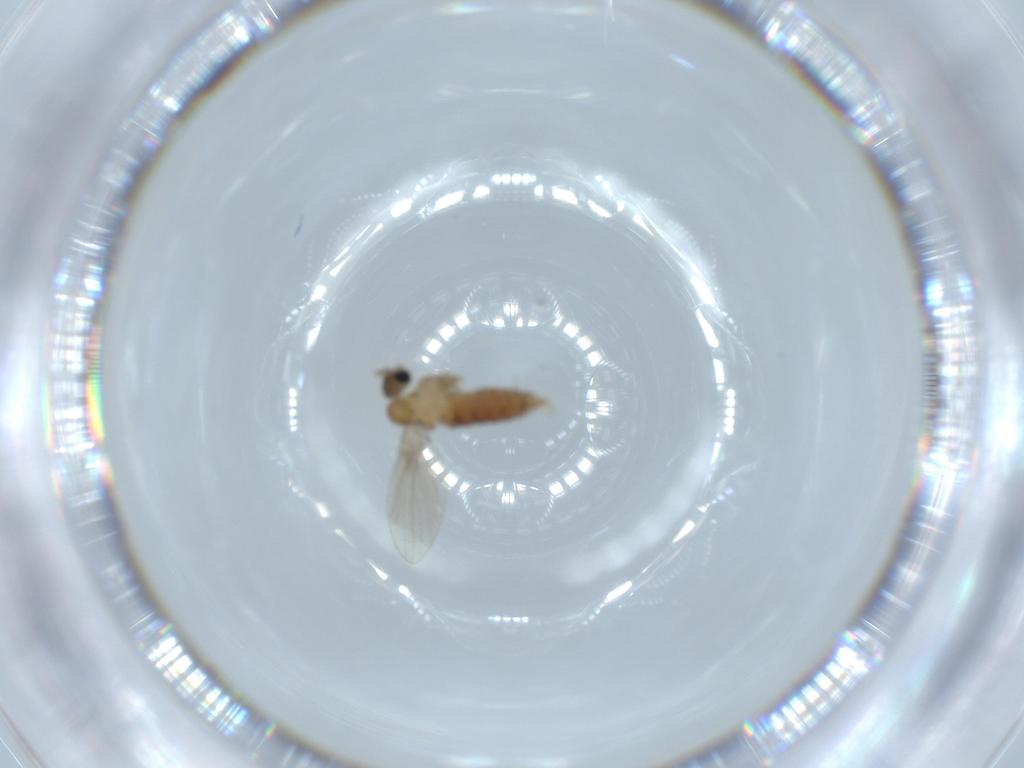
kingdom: Animalia
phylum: Arthropoda
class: Insecta
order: Diptera
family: Sciaridae
